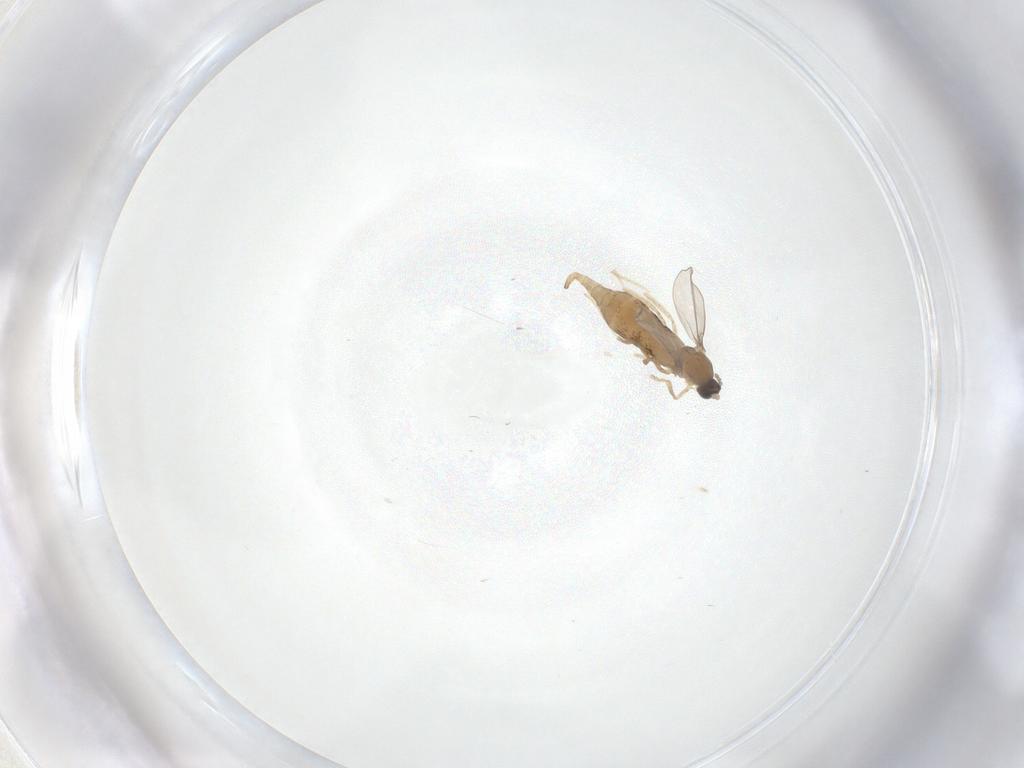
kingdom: Animalia
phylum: Arthropoda
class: Insecta
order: Diptera
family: Cecidomyiidae
